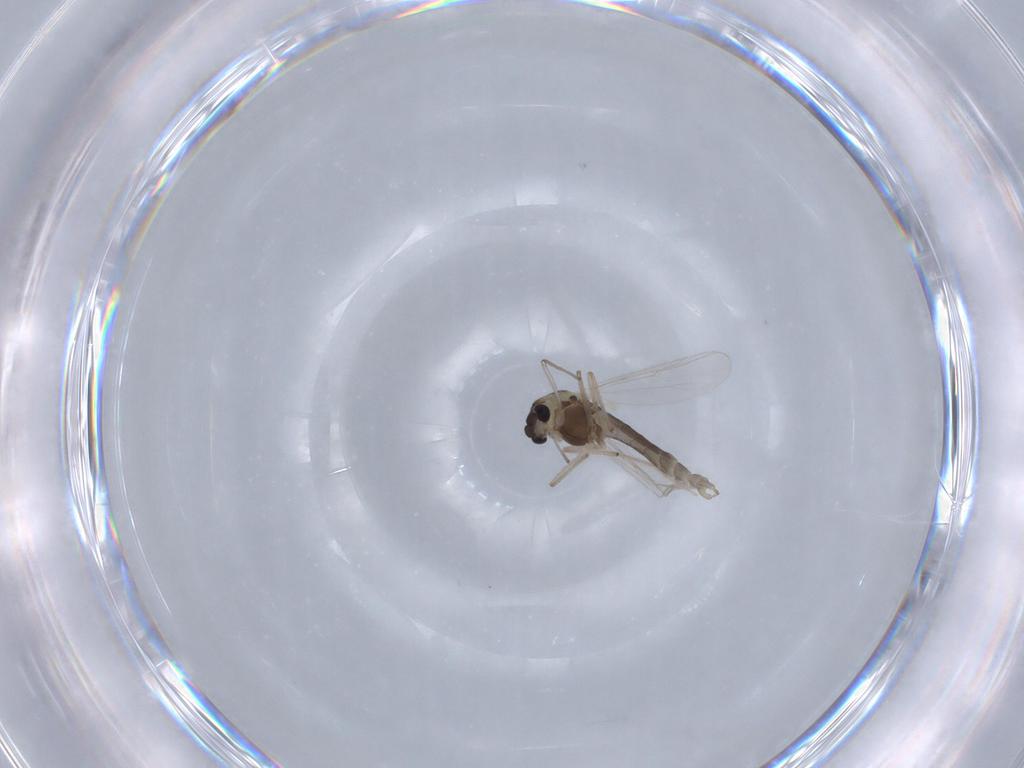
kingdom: Animalia
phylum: Arthropoda
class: Insecta
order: Diptera
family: Chironomidae
